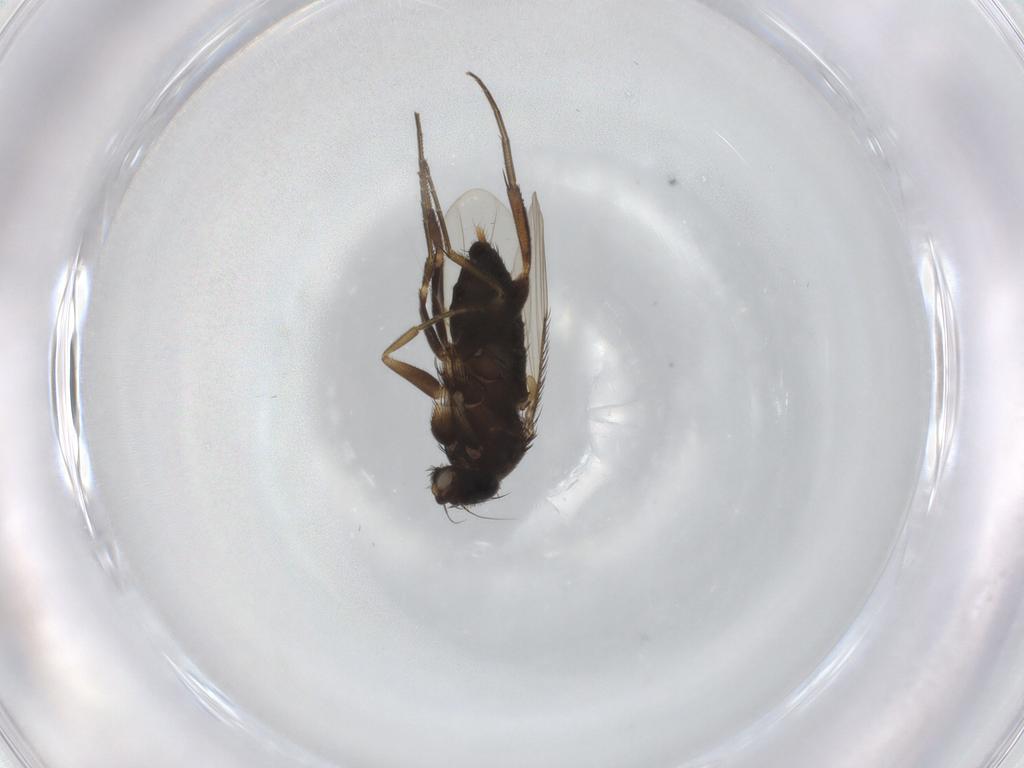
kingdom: Animalia
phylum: Arthropoda
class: Insecta
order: Diptera
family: Phoridae
